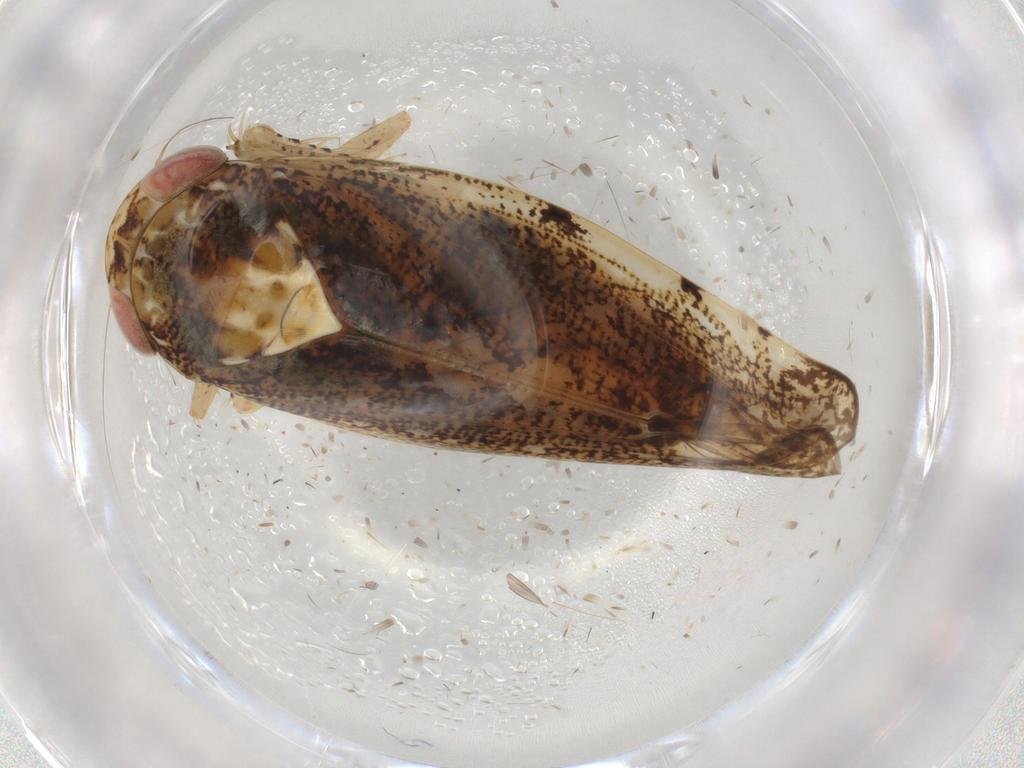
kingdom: Animalia
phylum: Arthropoda
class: Insecta
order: Hemiptera
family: Cicadellidae
